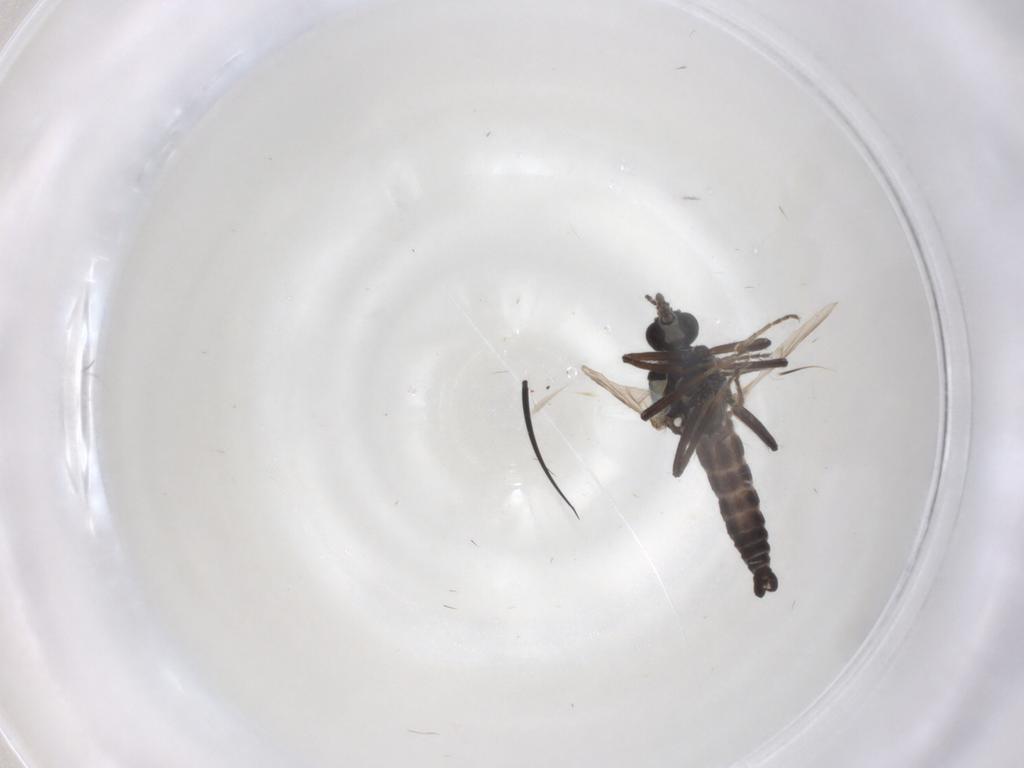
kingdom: Animalia
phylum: Arthropoda
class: Insecta
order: Diptera
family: Ceratopogonidae
